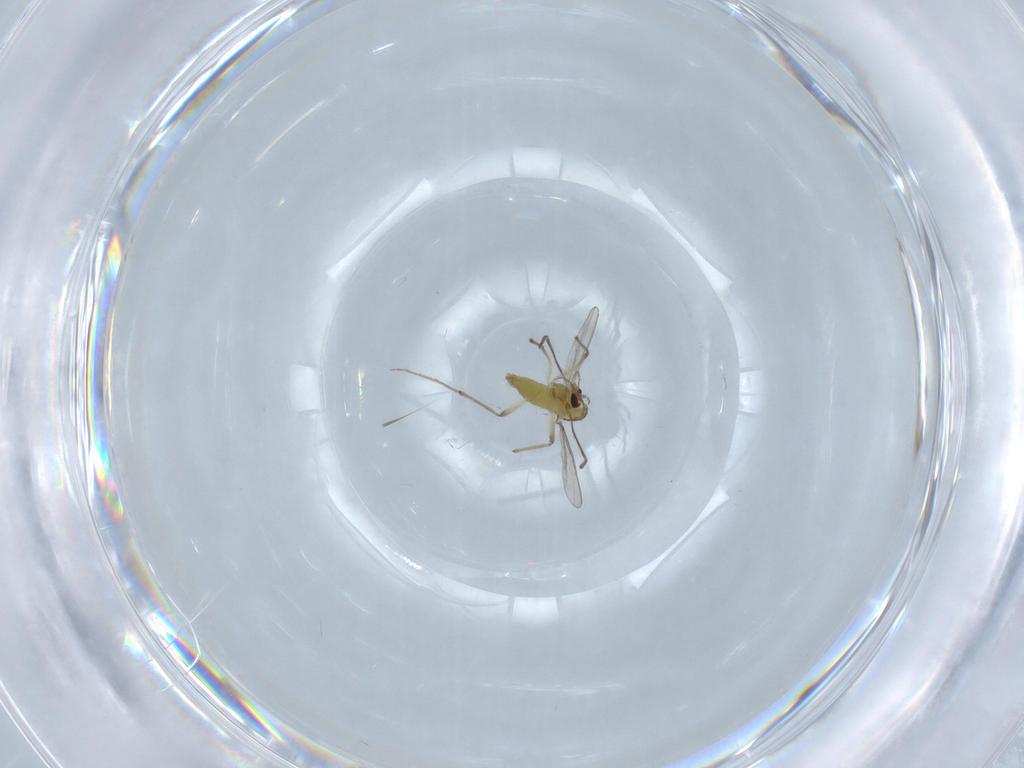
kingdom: Animalia
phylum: Arthropoda
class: Insecta
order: Diptera
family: Chironomidae
